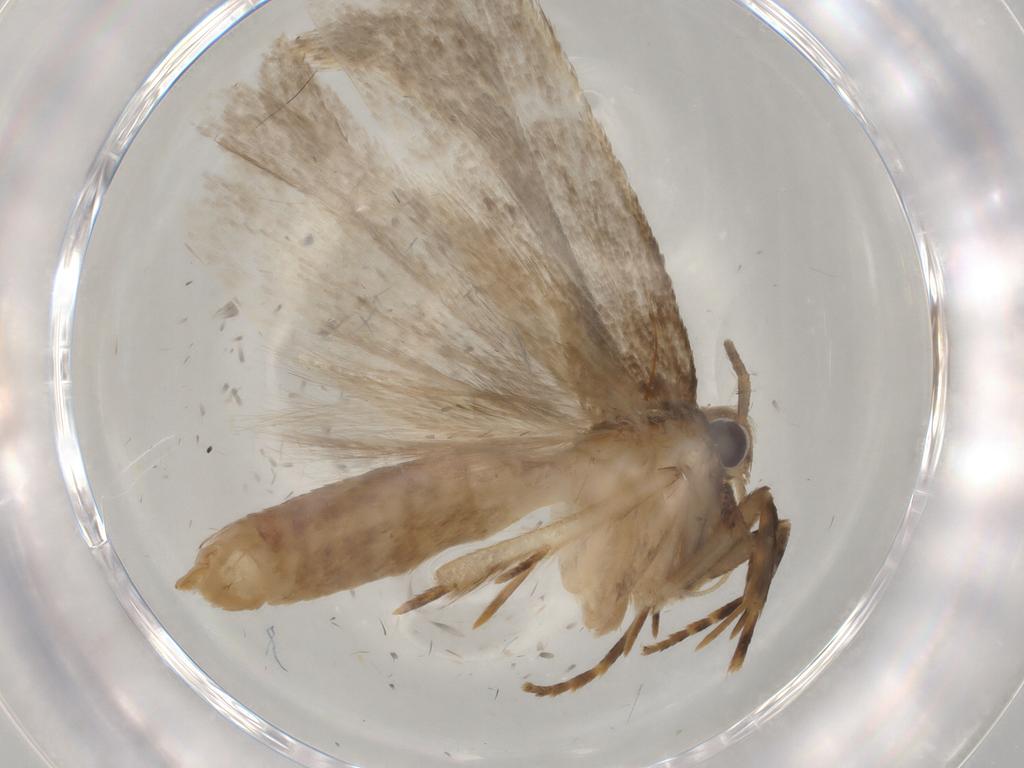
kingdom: Animalia
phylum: Arthropoda
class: Insecta
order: Lepidoptera
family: Gelechiidae
